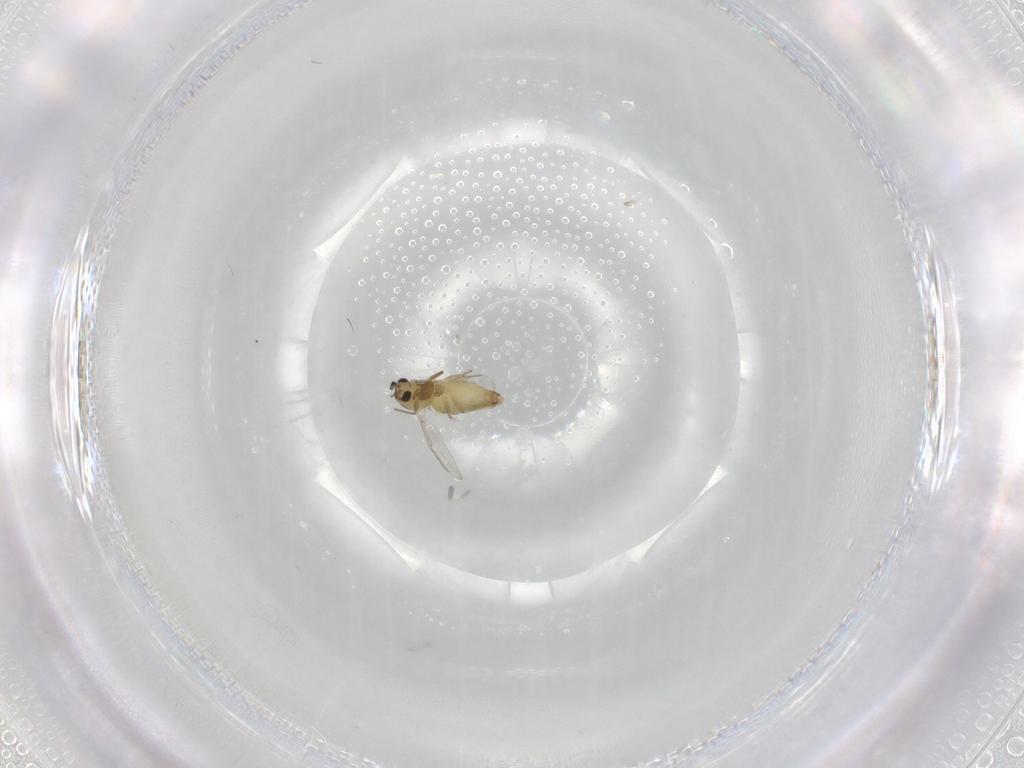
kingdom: Animalia
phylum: Arthropoda
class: Insecta
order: Diptera
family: Chironomidae
